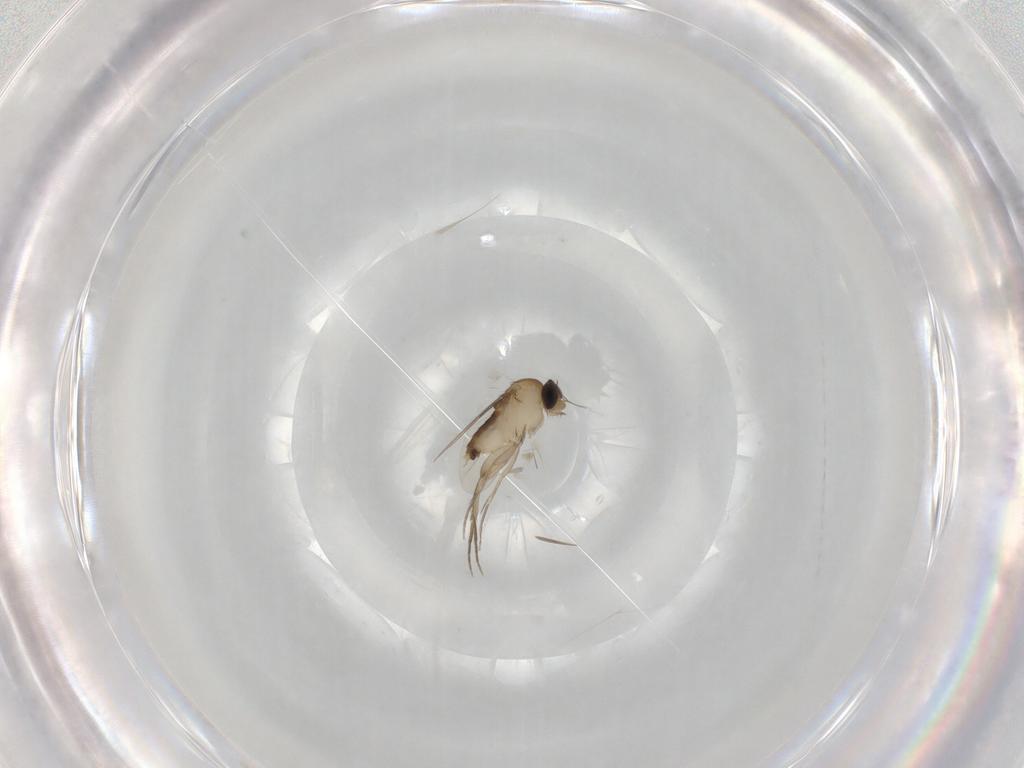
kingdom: Animalia
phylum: Arthropoda
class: Insecta
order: Diptera
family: Phoridae
